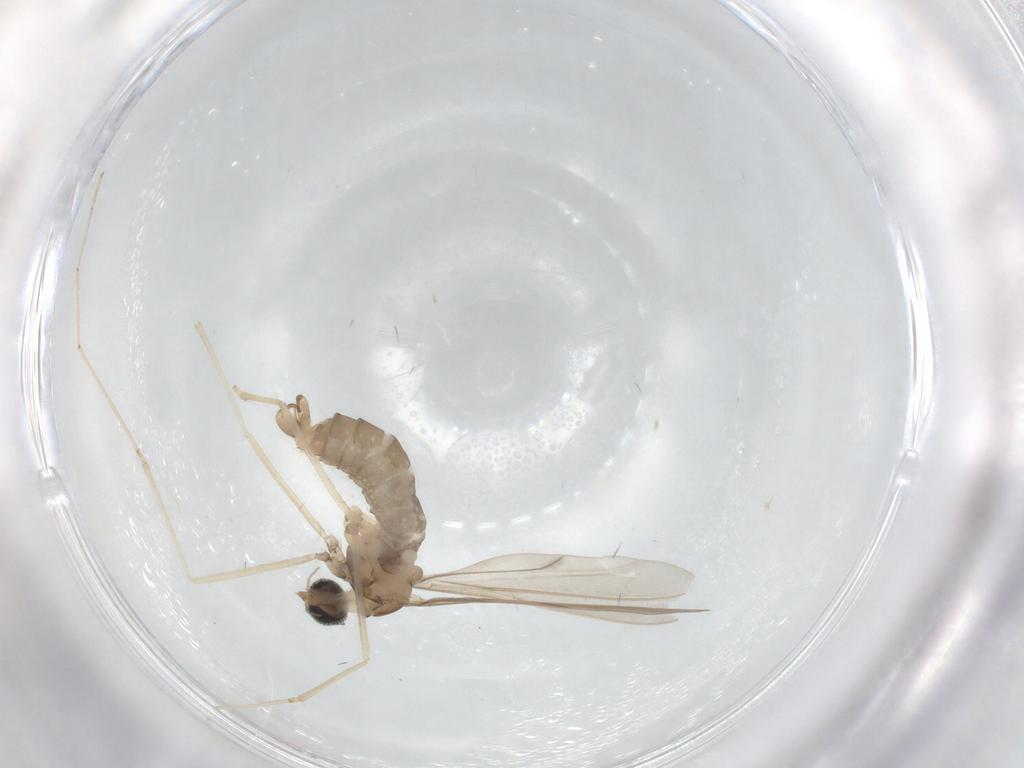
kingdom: Animalia
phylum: Arthropoda
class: Insecta
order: Diptera
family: Cecidomyiidae
